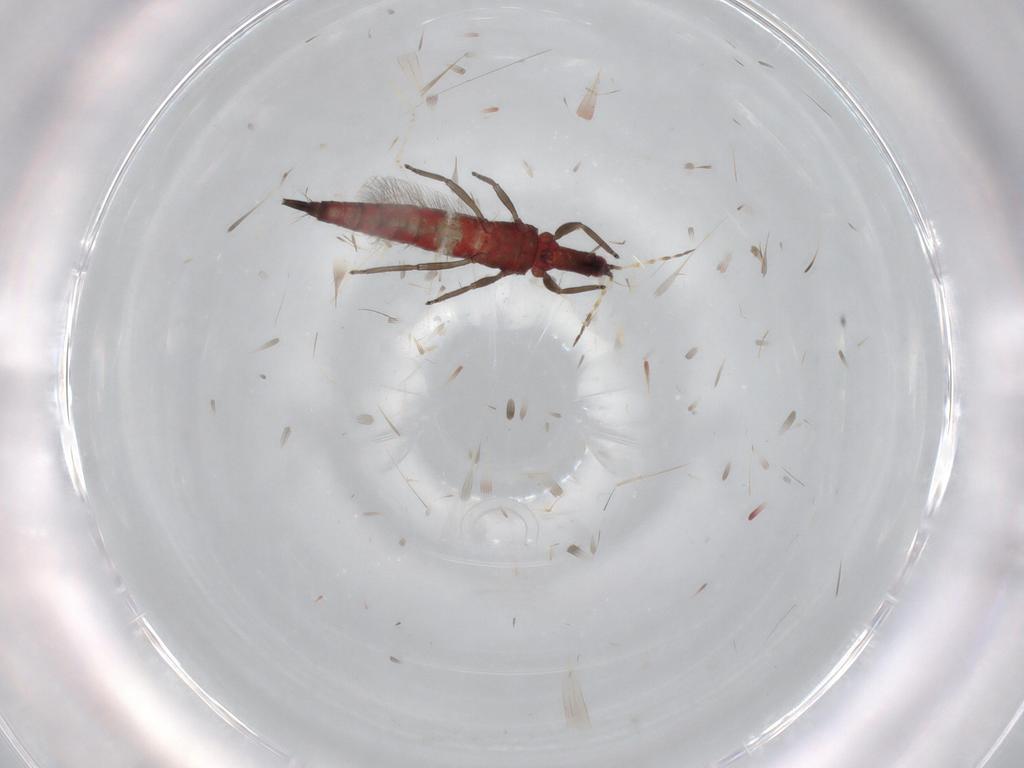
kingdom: Animalia
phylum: Arthropoda
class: Insecta
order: Thysanoptera
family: Phlaeothripidae
